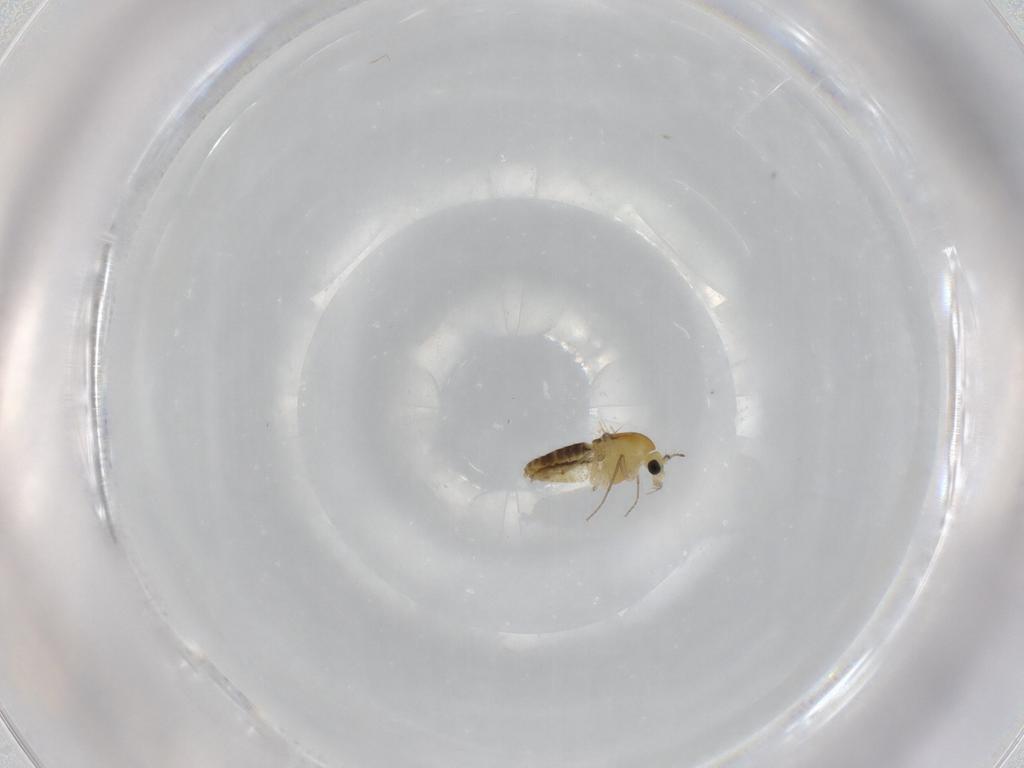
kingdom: Animalia
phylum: Arthropoda
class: Insecta
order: Diptera
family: Chironomidae
